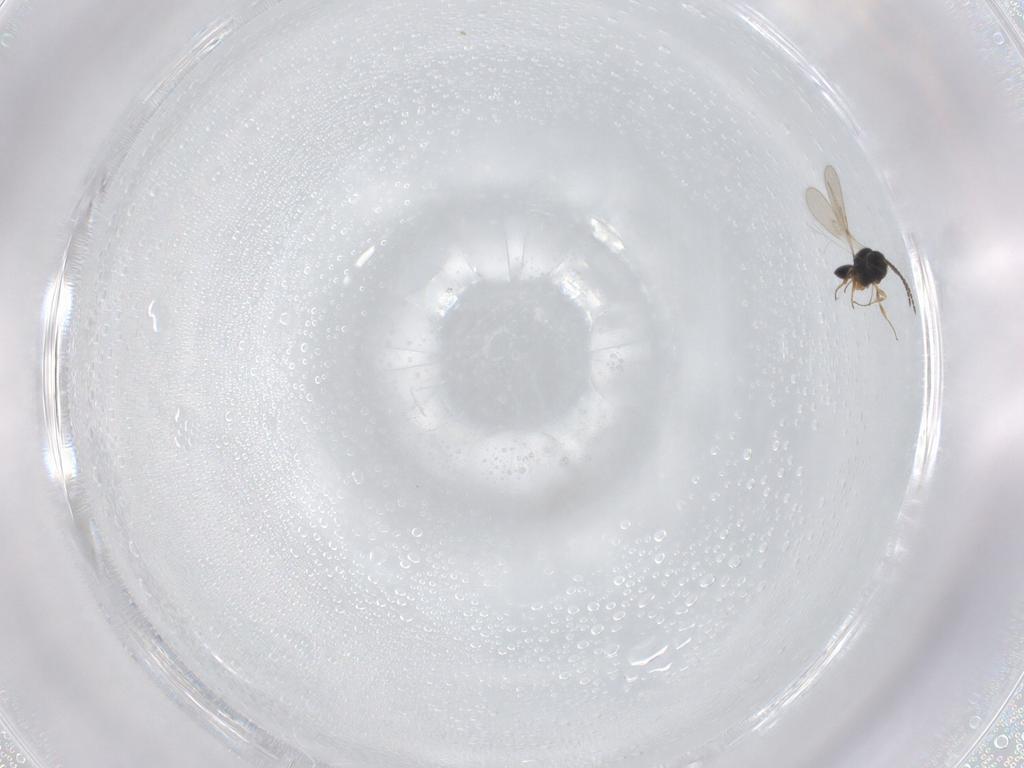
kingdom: Animalia
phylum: Arthropoda
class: Insecta
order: Hymenoptera
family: Scelionidae
